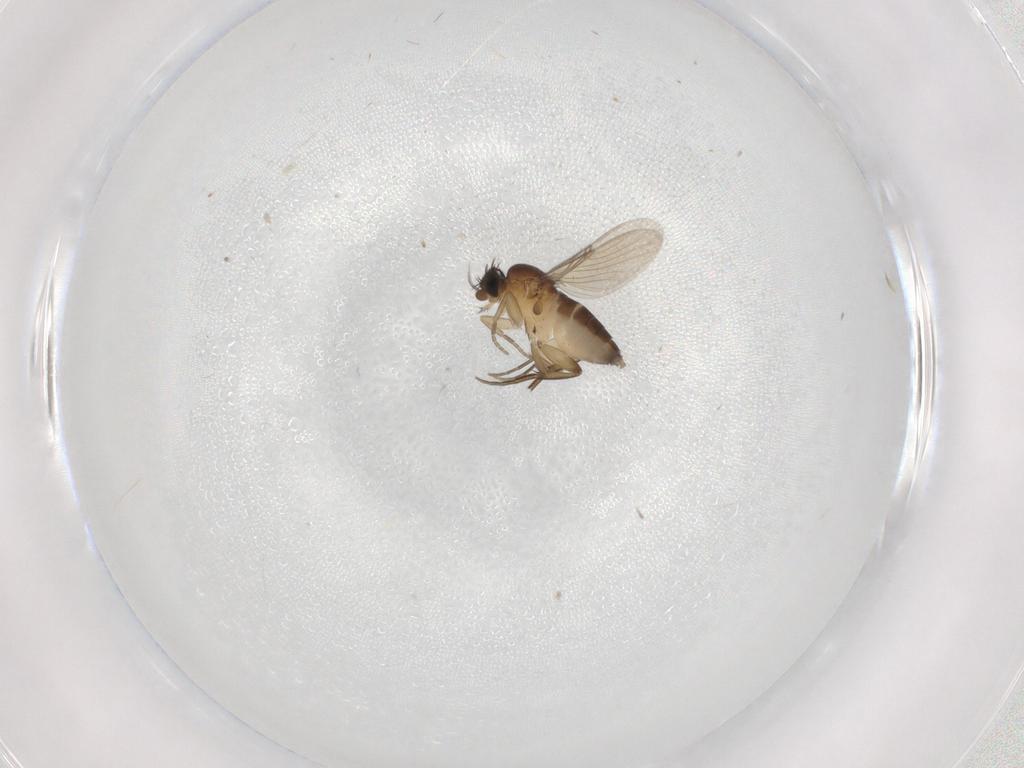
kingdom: Animalia
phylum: Arthropoda
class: Insecta
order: Diptera
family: Phoridae
